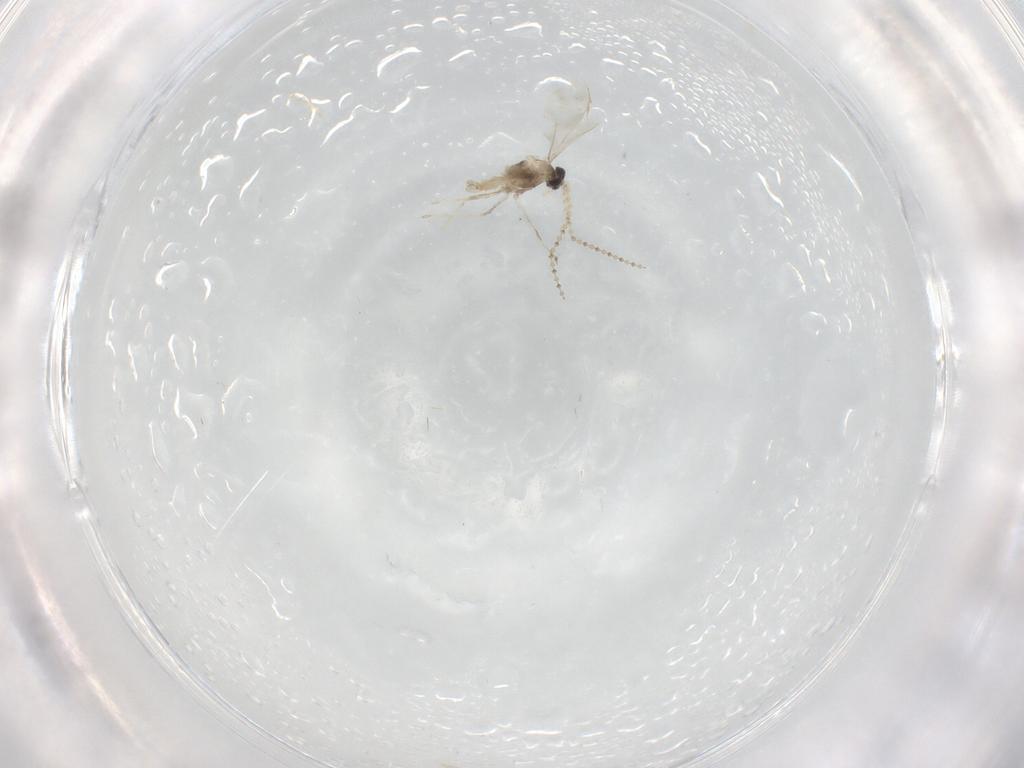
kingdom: Animalia
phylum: Arthropoda
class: Insecta
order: Diptera
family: Cecidomyiidae
